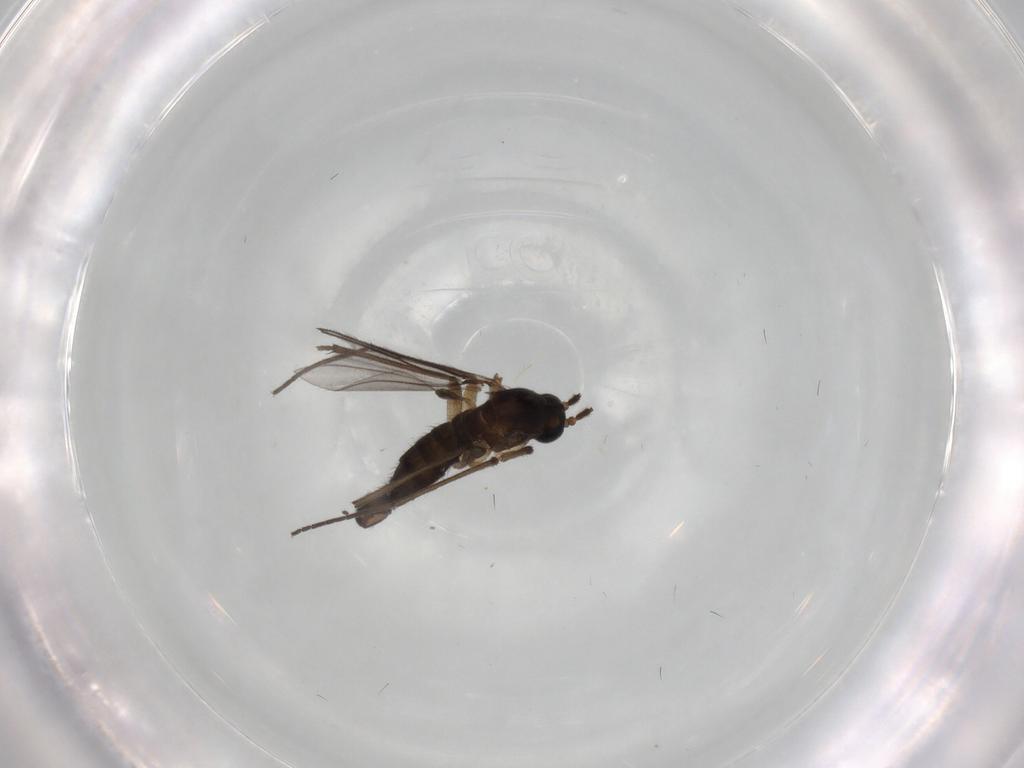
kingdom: Animalia
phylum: Arthropoda
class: Insecta
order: Diptera
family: Sciaridae
